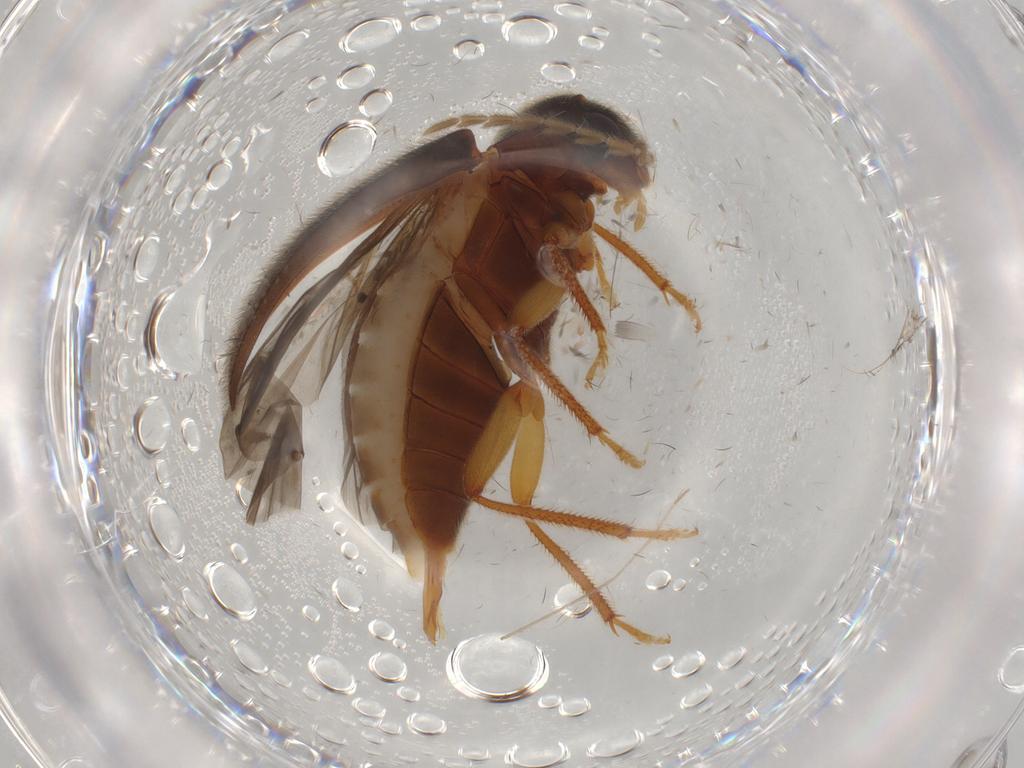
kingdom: Animalia
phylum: Arthropoda
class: Insecta
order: Coleoptera
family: Ptilodactylidae
